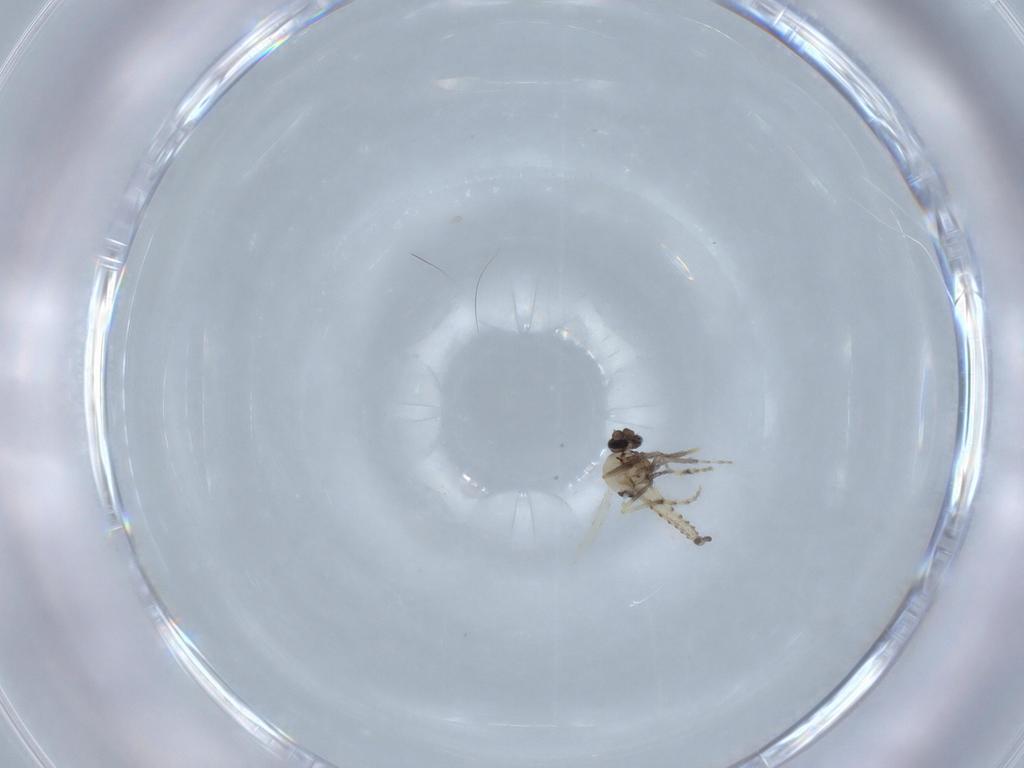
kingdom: Animalia
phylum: Arthropoda
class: Insecta
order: Diptera
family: Ceratopogonidae
